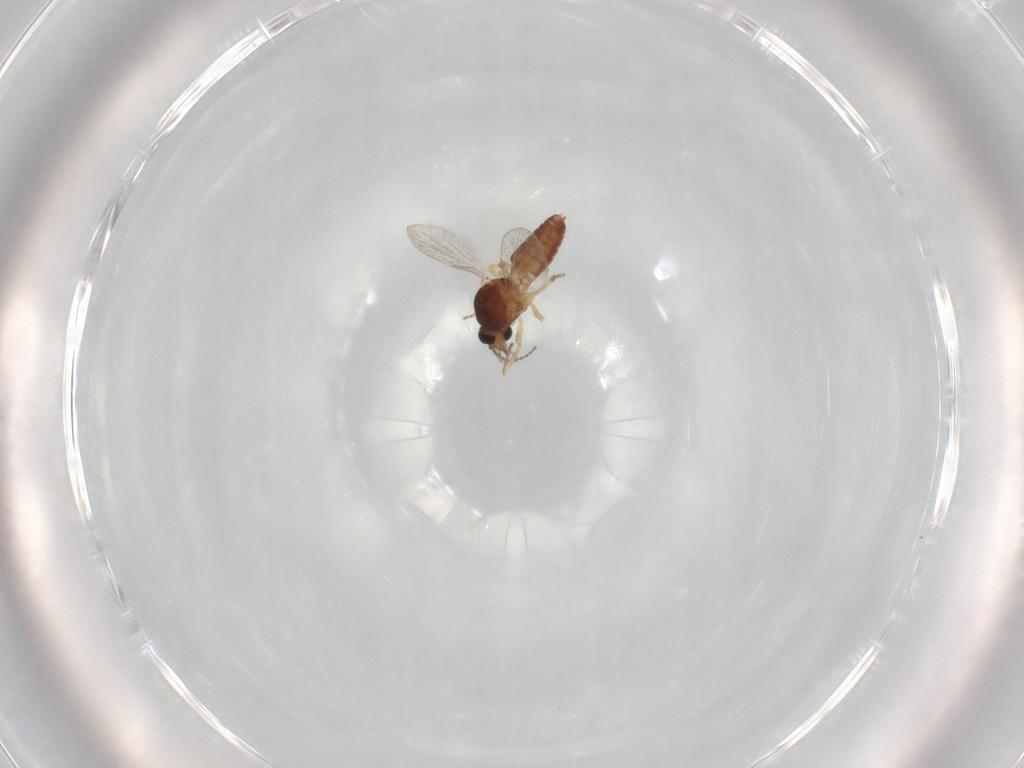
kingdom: Animalia
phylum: Arthropoda
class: Insecta
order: Diptera
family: Ceratopogonidae
